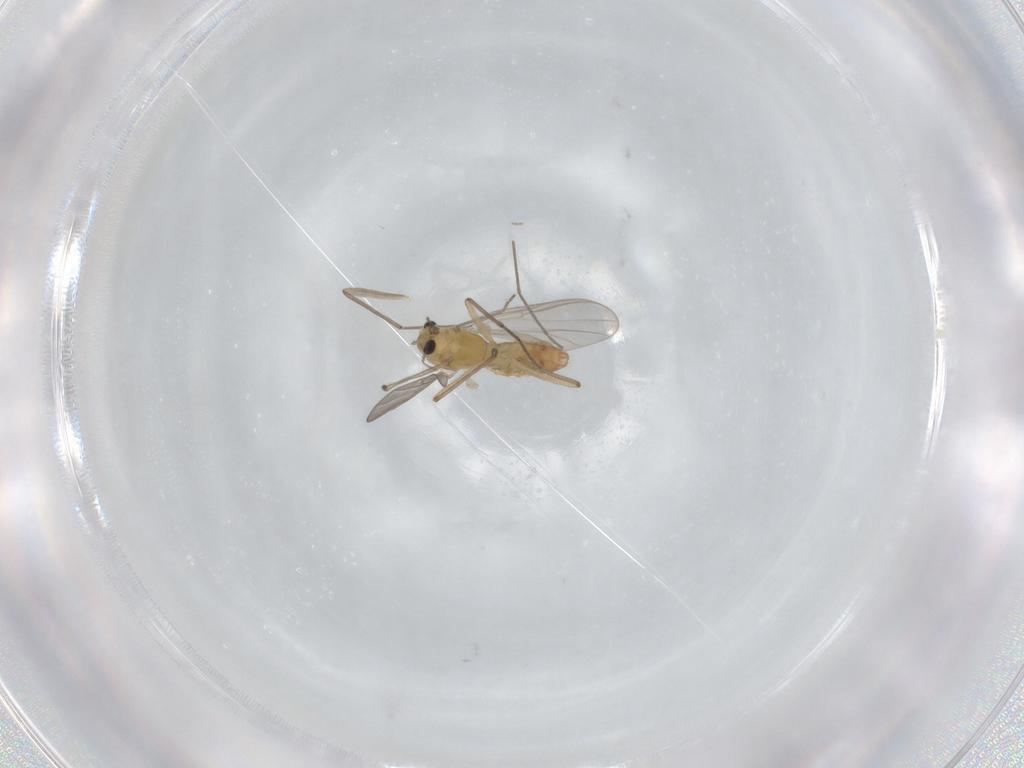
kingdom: Animalia
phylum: Arthropoda
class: Insecta
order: Diptera
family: Chironomidae
